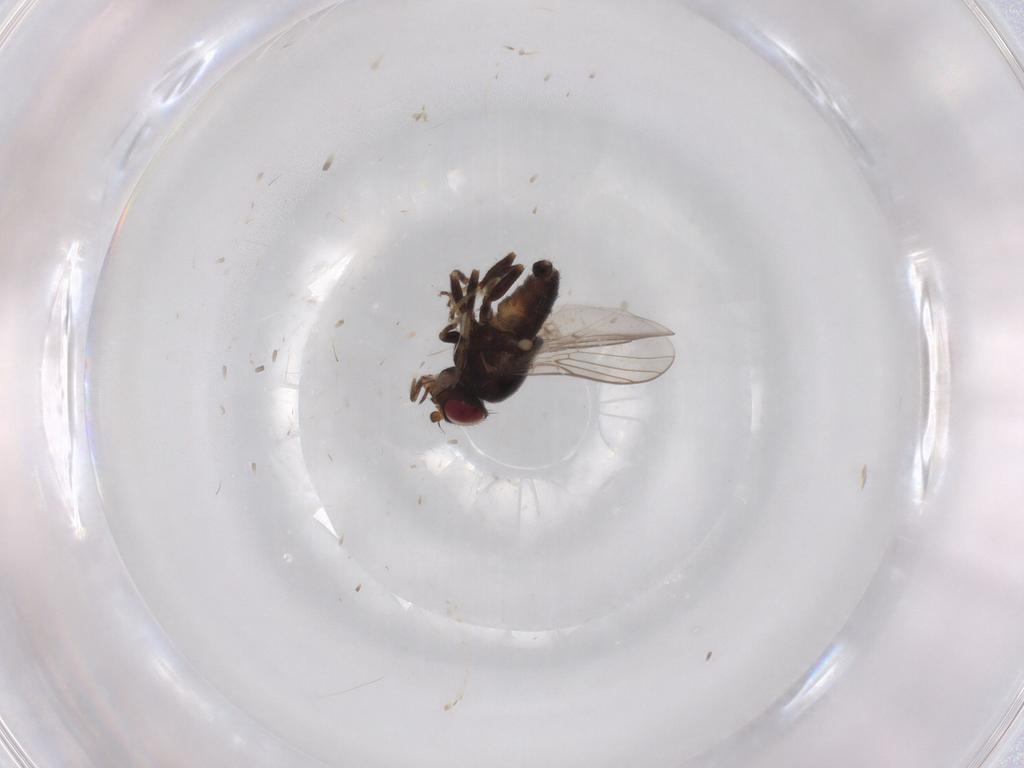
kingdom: Animalia
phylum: Arthropoda
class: Insecta
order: Diptera
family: Chloropidae
